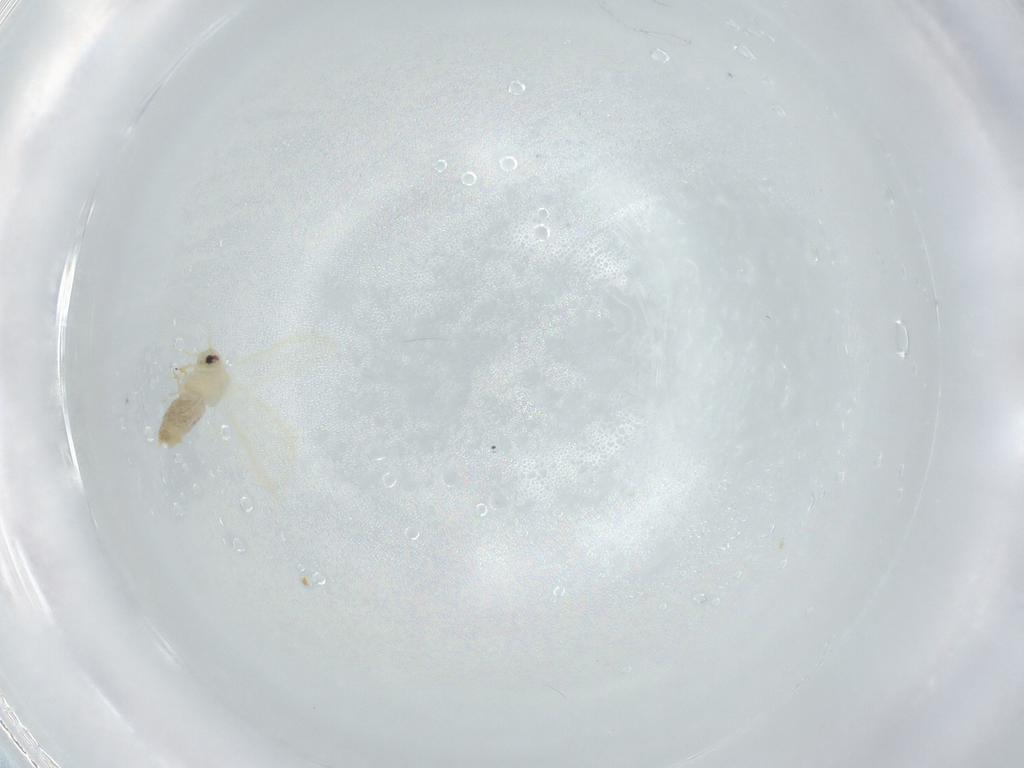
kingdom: Animalia
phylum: Arthropoda
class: Insecta
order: Hemiptera
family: Aleyrodidae
